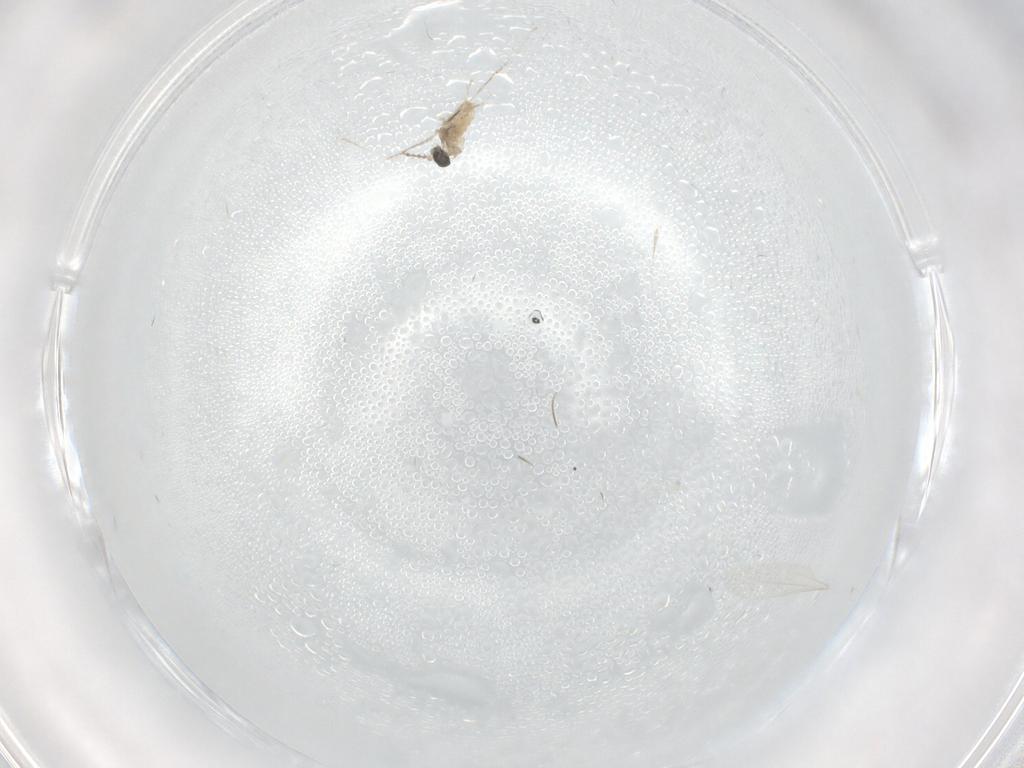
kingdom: Animalia
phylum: Arthropoda
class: Insecta
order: Diptera
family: Chironomidae
